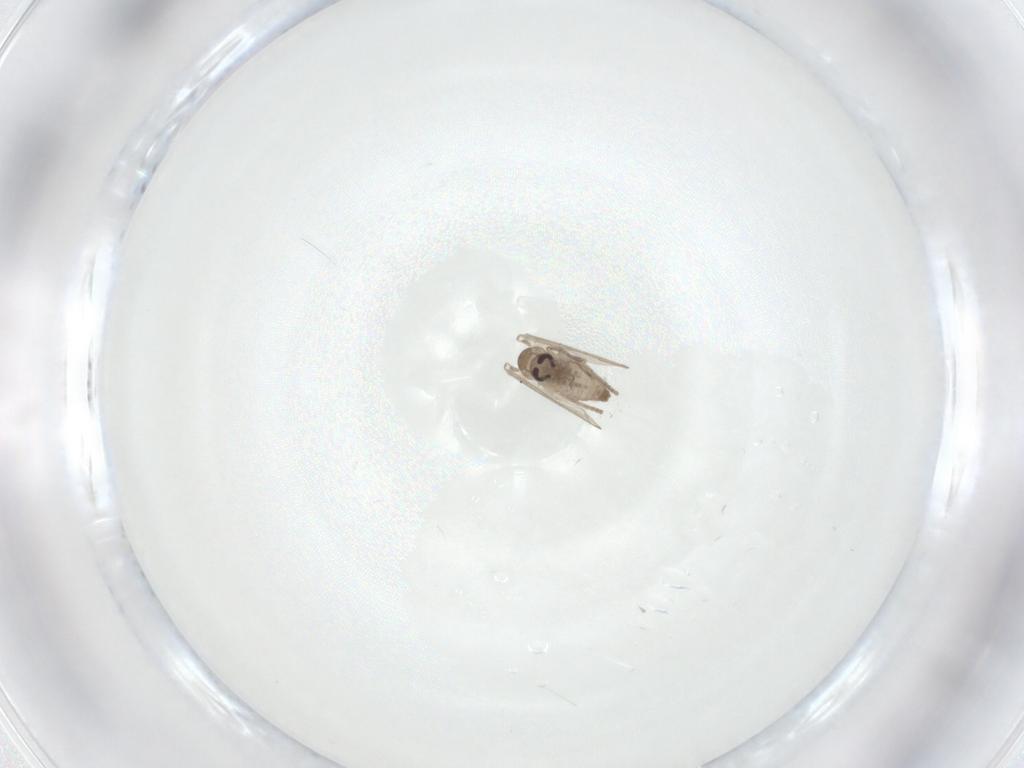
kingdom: Animalia
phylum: Arthropoda
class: Insecta
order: Diptera
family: Psychodidae
